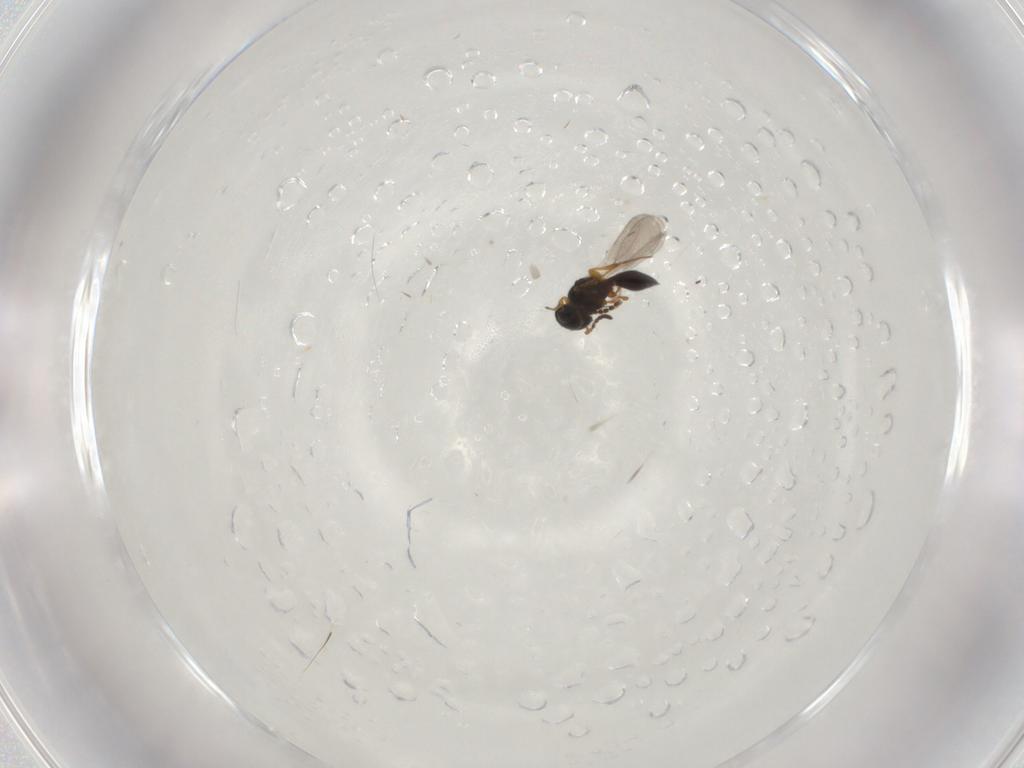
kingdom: Animalia
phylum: Arthropoda
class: Insecta
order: Hymenoptera
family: Platygastridae
